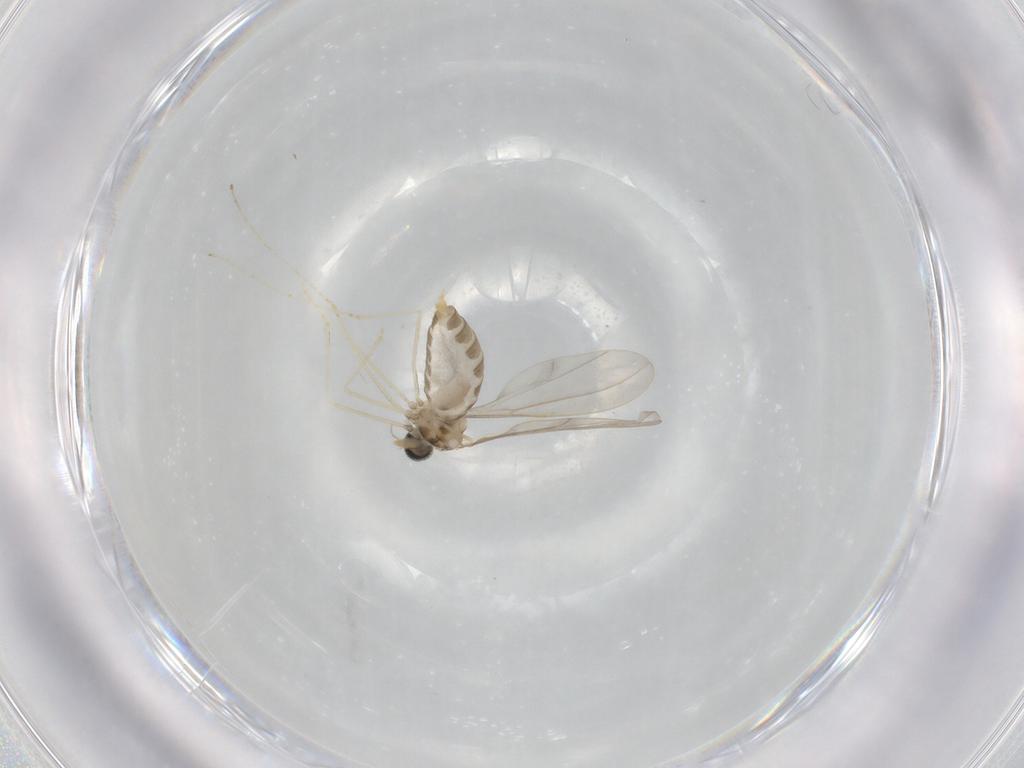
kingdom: Animalia
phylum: Arthropoda
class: Insecta
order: Diptera
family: Cecidomyiidae
